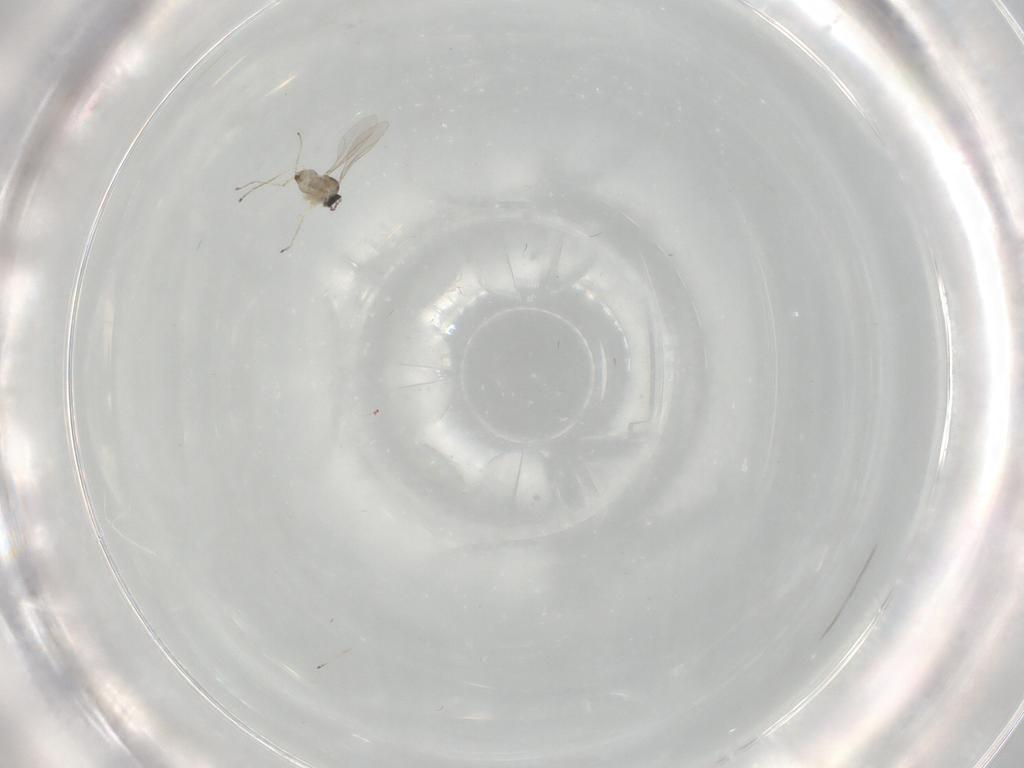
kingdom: Animalia
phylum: Arthropoda
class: Insecta
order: Diptera
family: Cecidomyiidae
